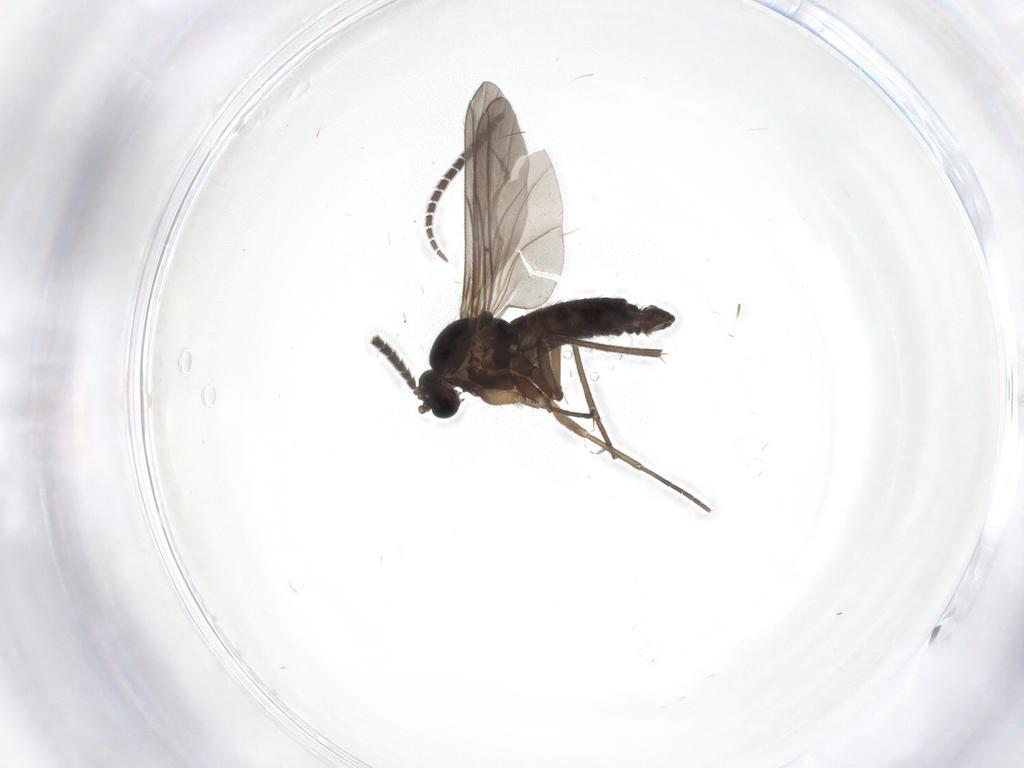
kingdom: Animalia
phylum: Arthropoda
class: Insecta
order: Diptera
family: Sciaridae
